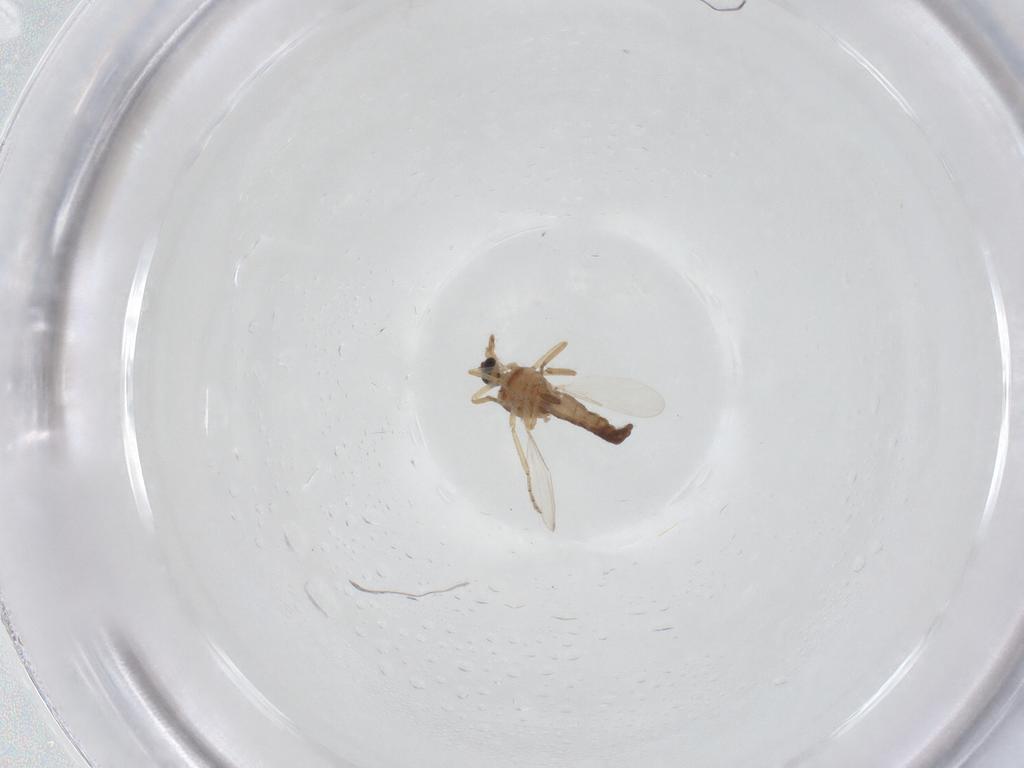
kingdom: Animalia
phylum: Arthropoda
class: Insecta
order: Diptera
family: Ceratopogonidae
